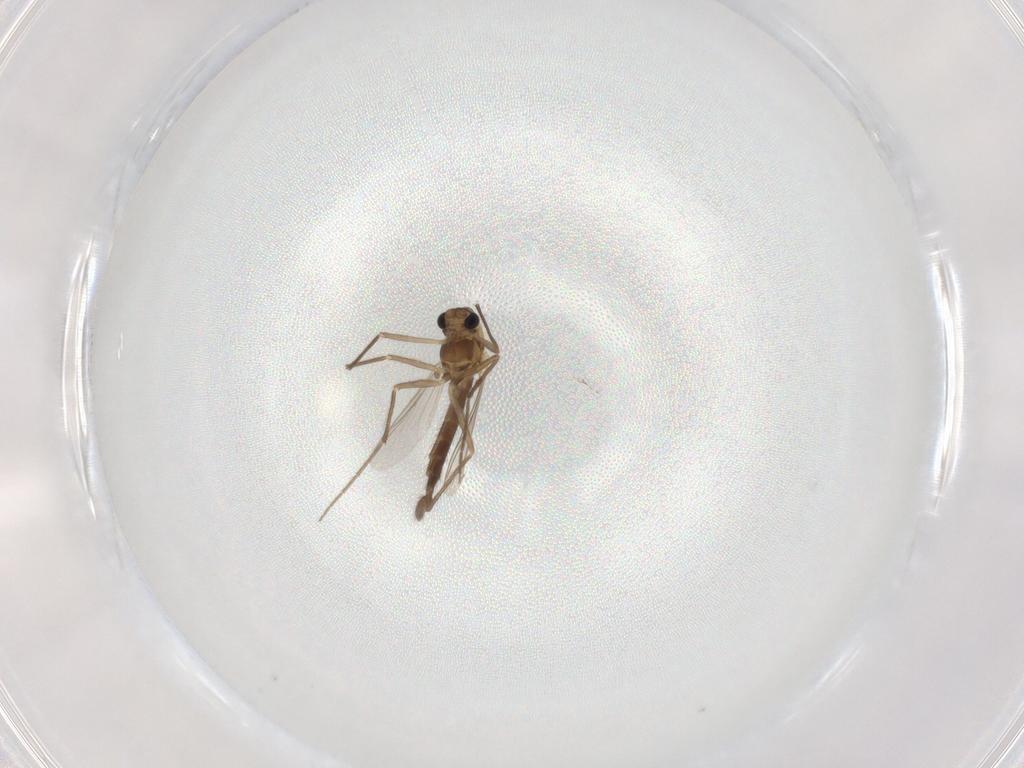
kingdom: Animalia
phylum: Arthropoda
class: Insecta
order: Diptera
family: Chironomidae
